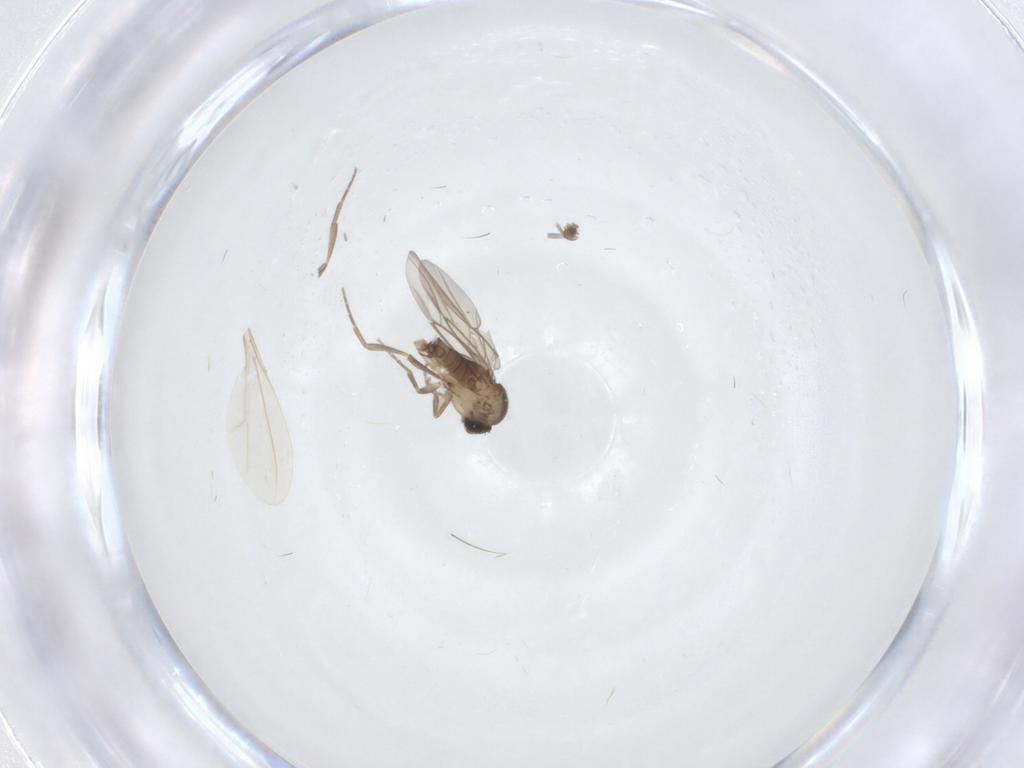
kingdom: Animalia
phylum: Arthropoda
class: Insecta
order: Diptera
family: Phoridae
